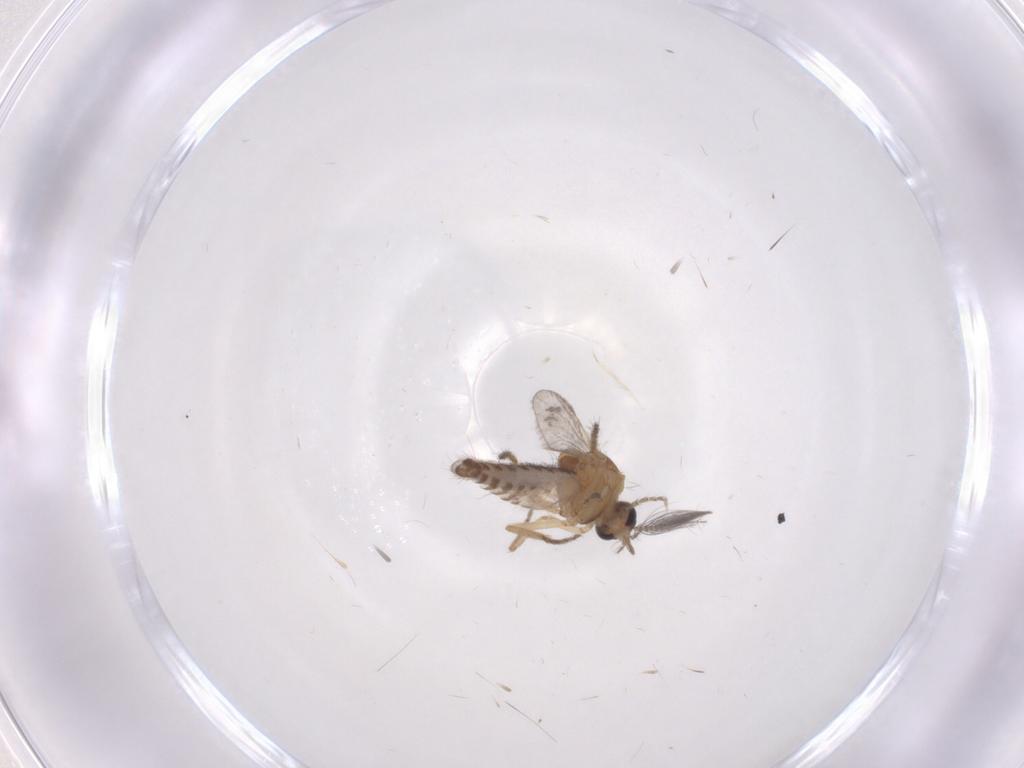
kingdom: Animalia
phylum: Arthropoda
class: Insecta
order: Diptera
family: Ceratopogonidae
